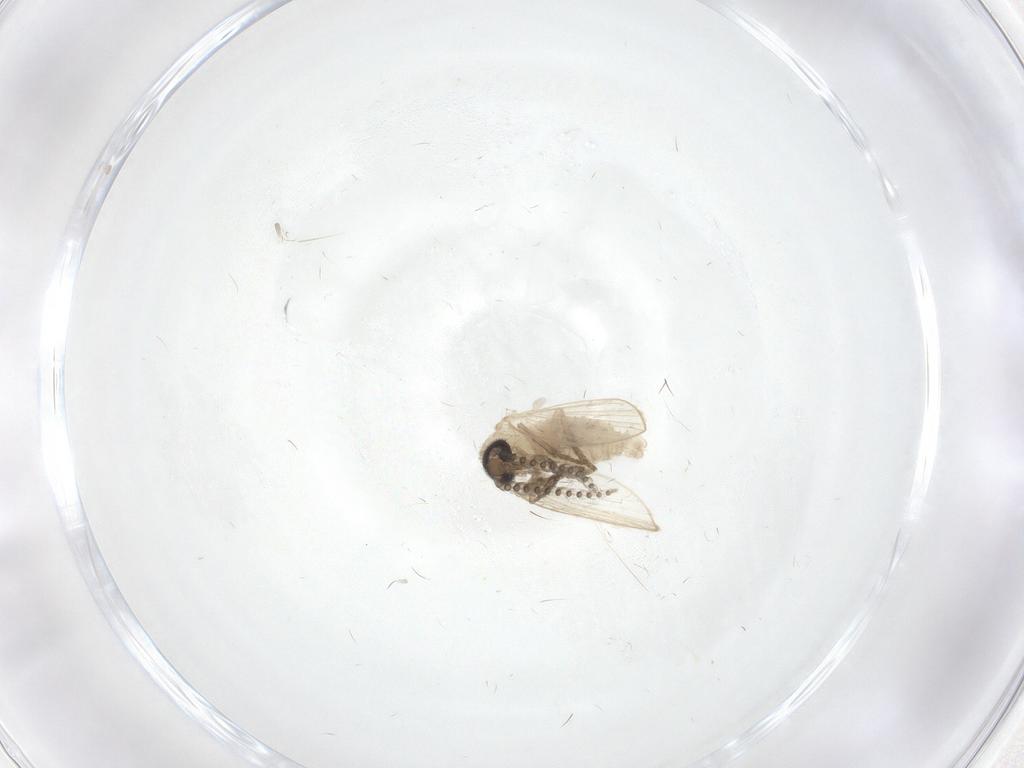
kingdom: Animalia
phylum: Arthropoda
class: Insecta
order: Diptera
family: Psychodidae
